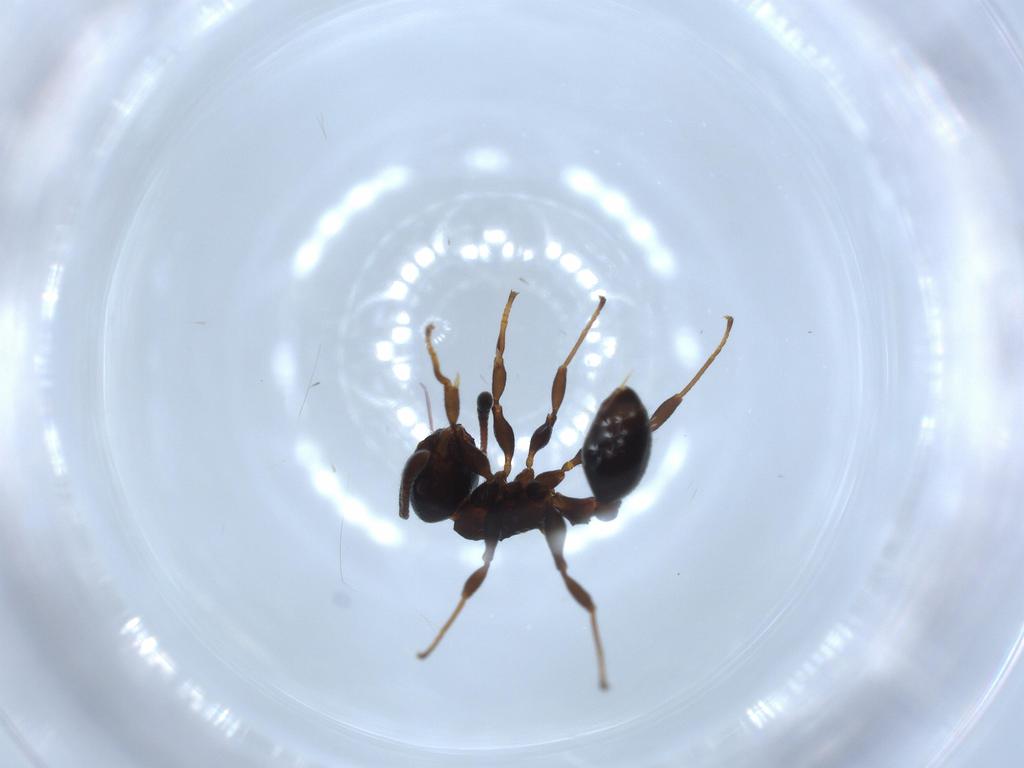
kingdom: Animalia
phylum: Arthropoda
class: Insecta
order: Hymenoptera
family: Formicidae
